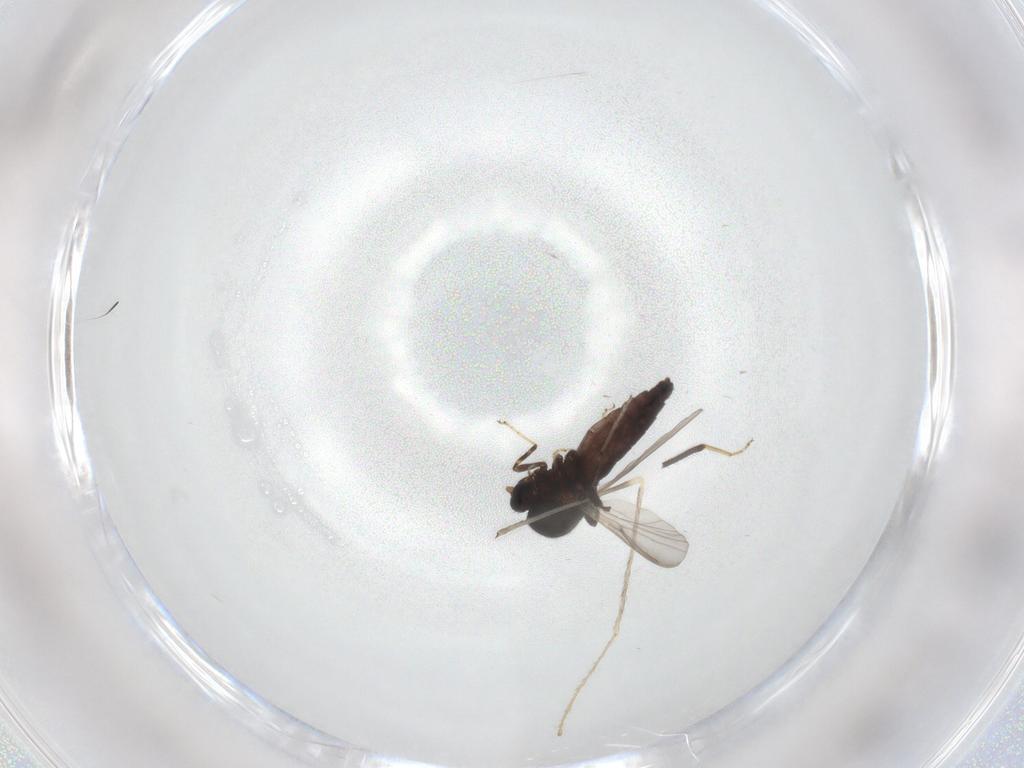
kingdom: Animalia
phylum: Arthropoda
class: Insecta
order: Diptera
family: Ceratopogonidae
